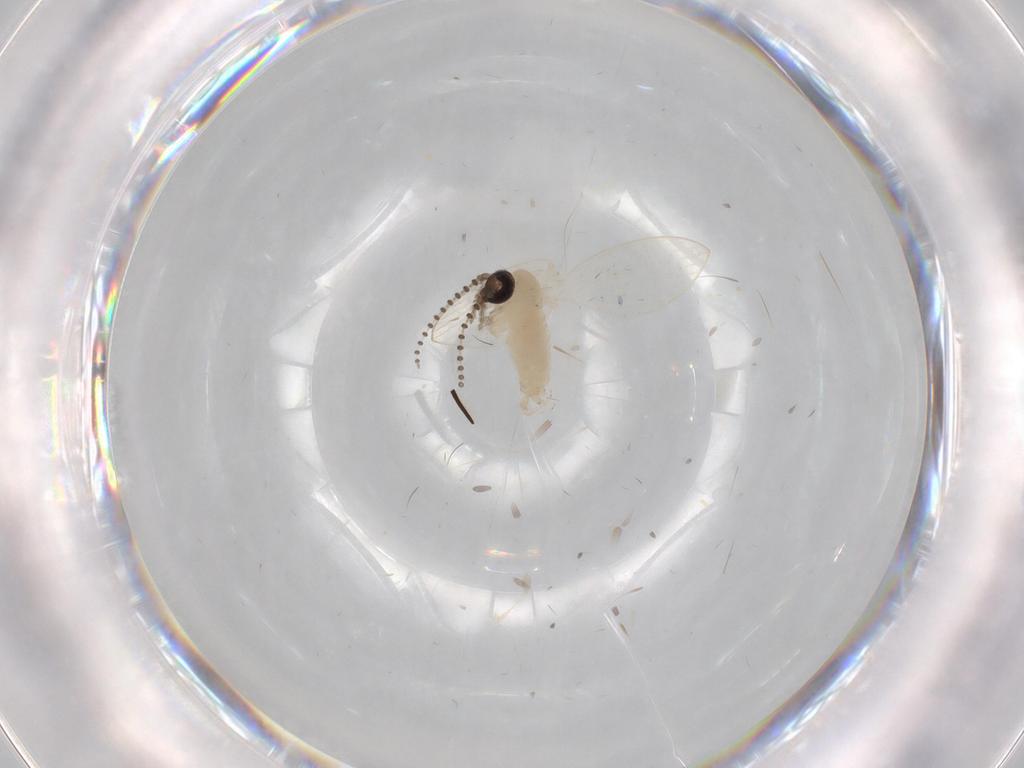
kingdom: Animalia
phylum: Arthropoda
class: Insecta
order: Diptera
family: Psychodidae
